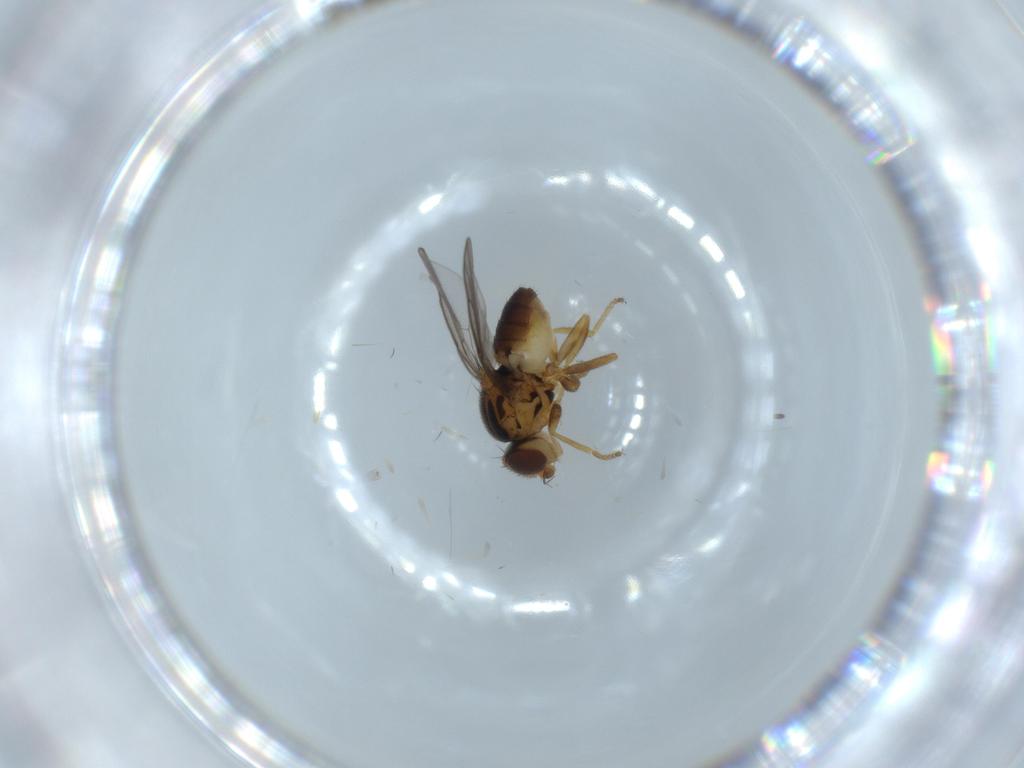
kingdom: Animalia
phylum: Arthropoda
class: Insecta
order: Diptera
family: Chloropidae
